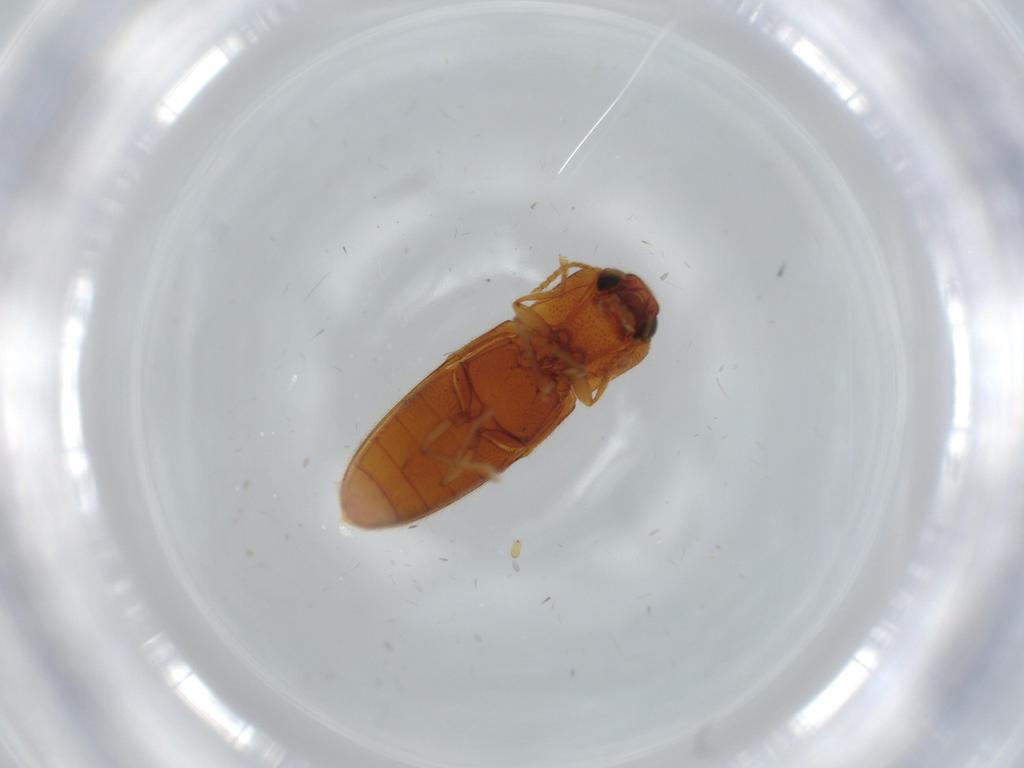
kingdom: Animalia
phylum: Arthropoda
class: Insecta
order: Coleoptera
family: Elateridae
